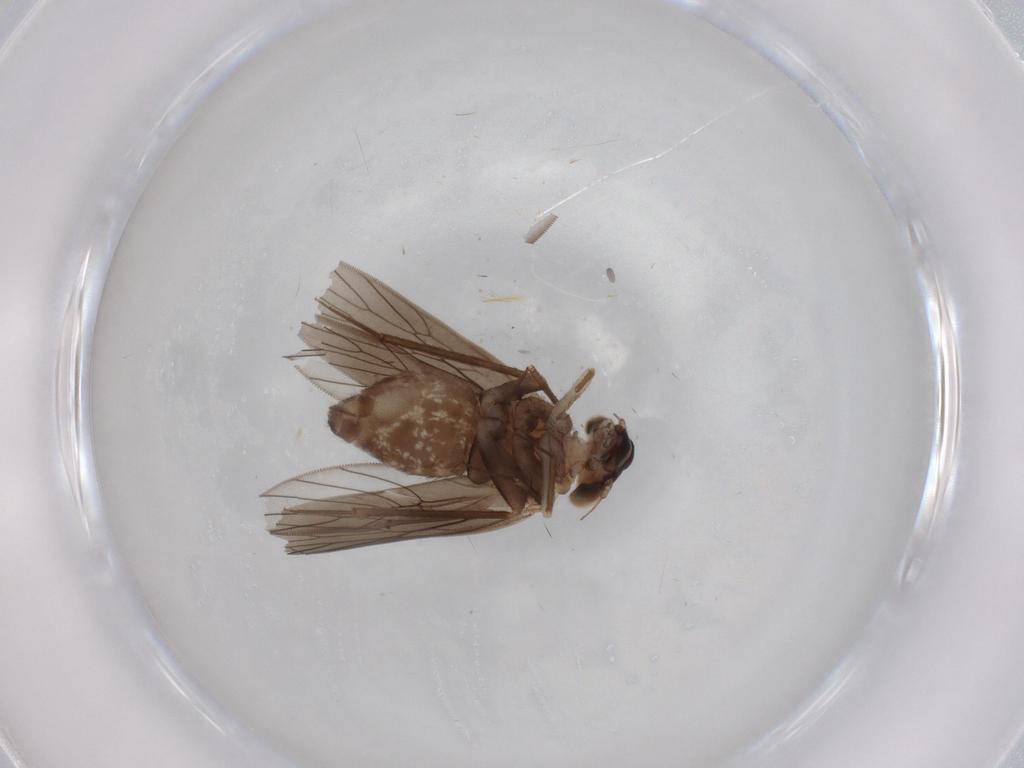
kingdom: Animalia
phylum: Arthropoda
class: Insecta
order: Psocodea
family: Lepidopsocidae
